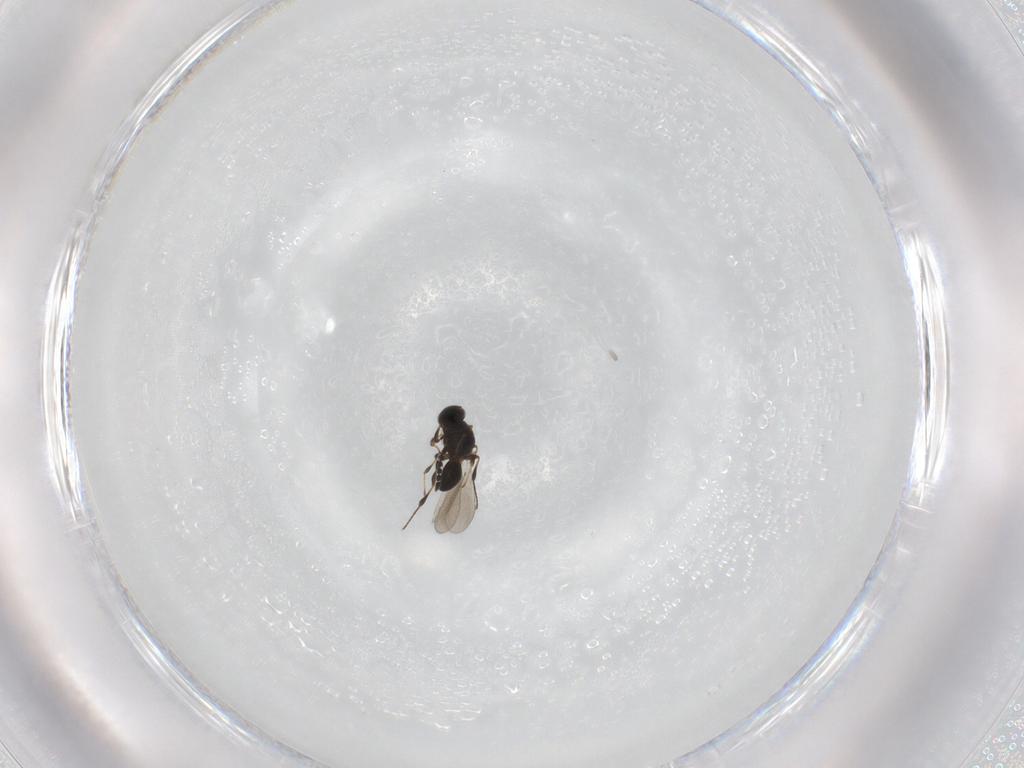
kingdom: Animalia
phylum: Arthropoda
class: Insecta
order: Hymenoptera
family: Platygastridae
